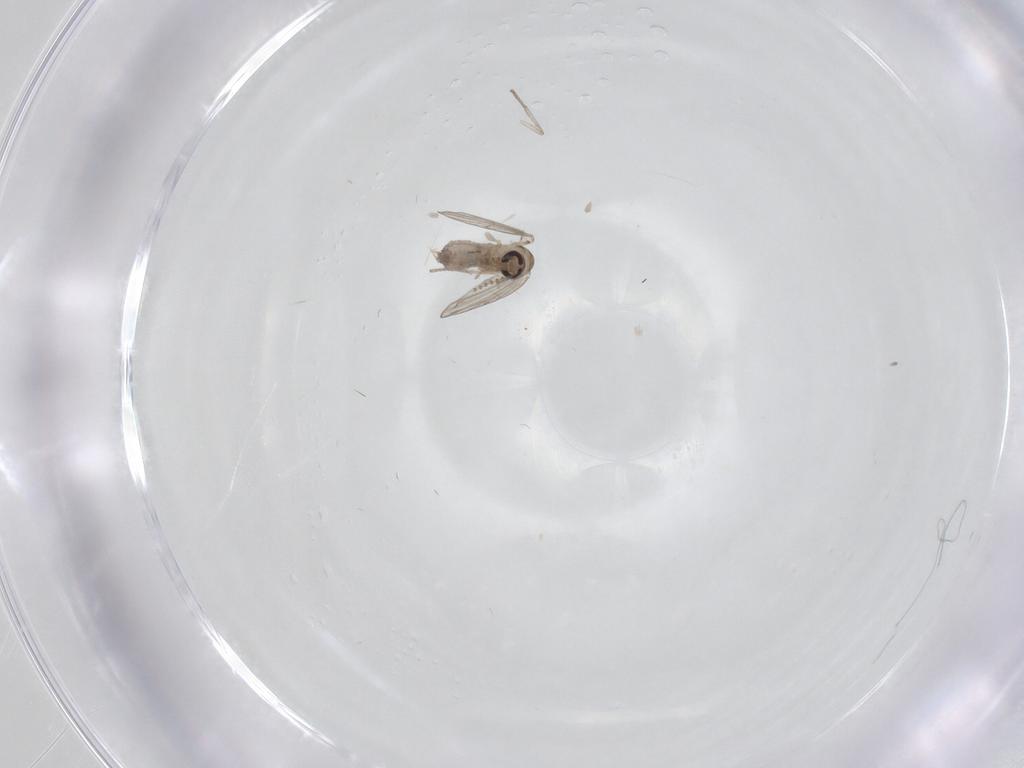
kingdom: Animalia
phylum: Arthropoda
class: Insecta
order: Diptera
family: Psychodidae
